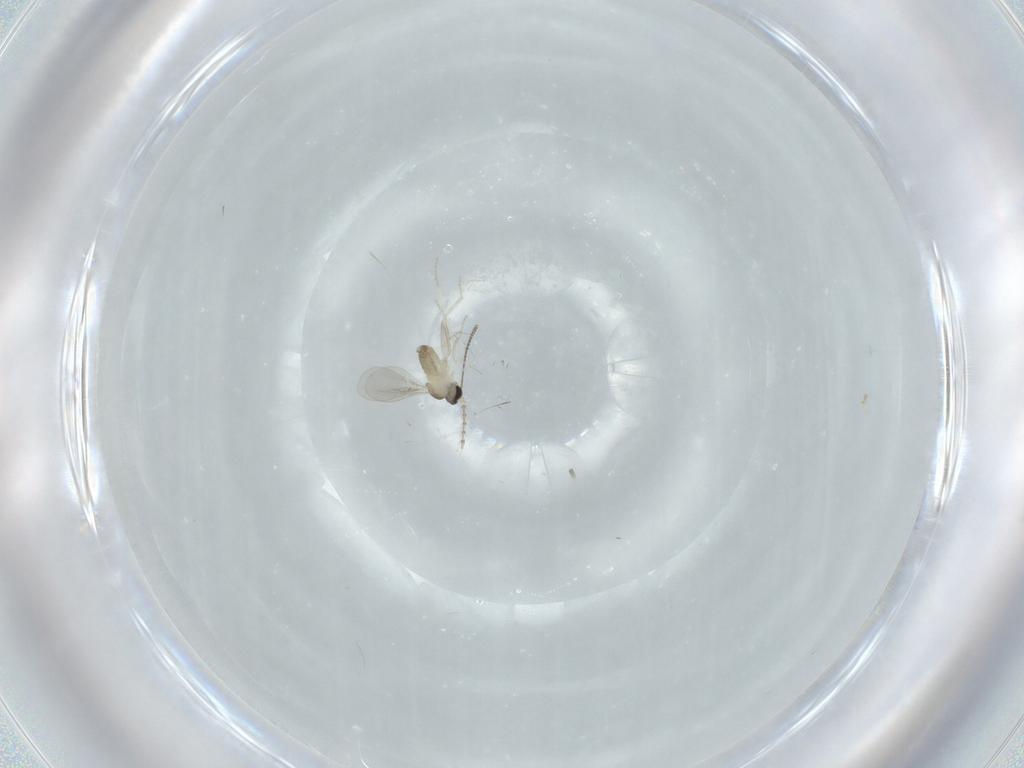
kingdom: Animalia
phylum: Arthropoda
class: Insecta
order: Diptera
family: Cecidomyiidae
